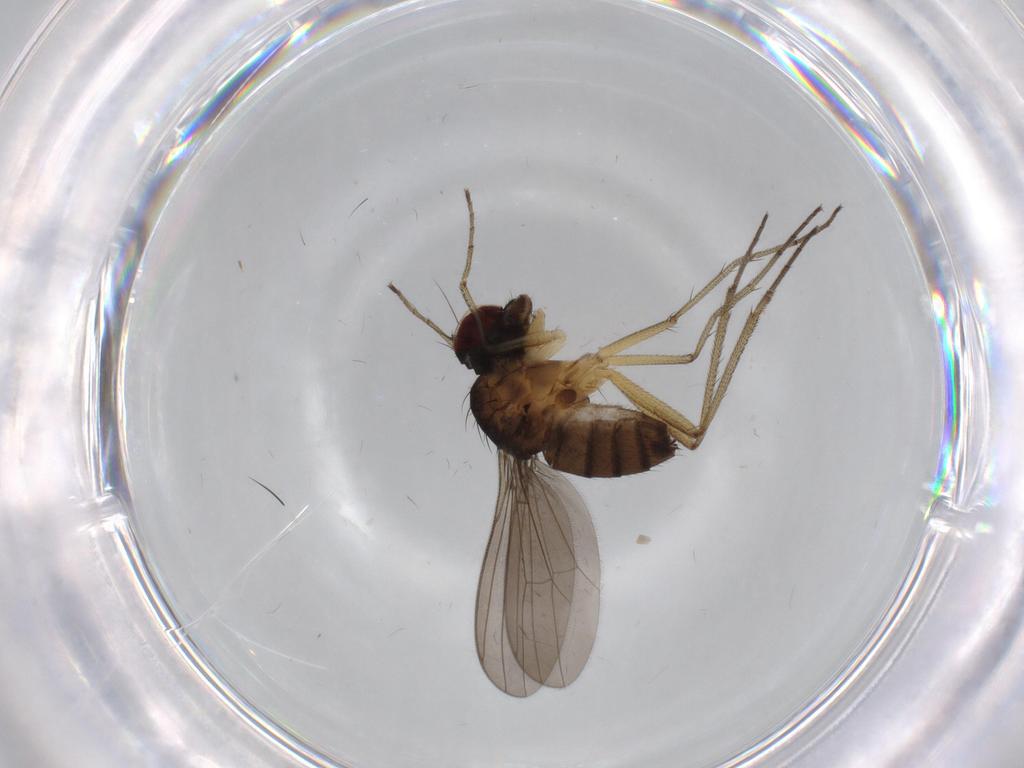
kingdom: Animalia
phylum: Arthropoda
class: Insecta
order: Diptera
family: Dolichopodidae
